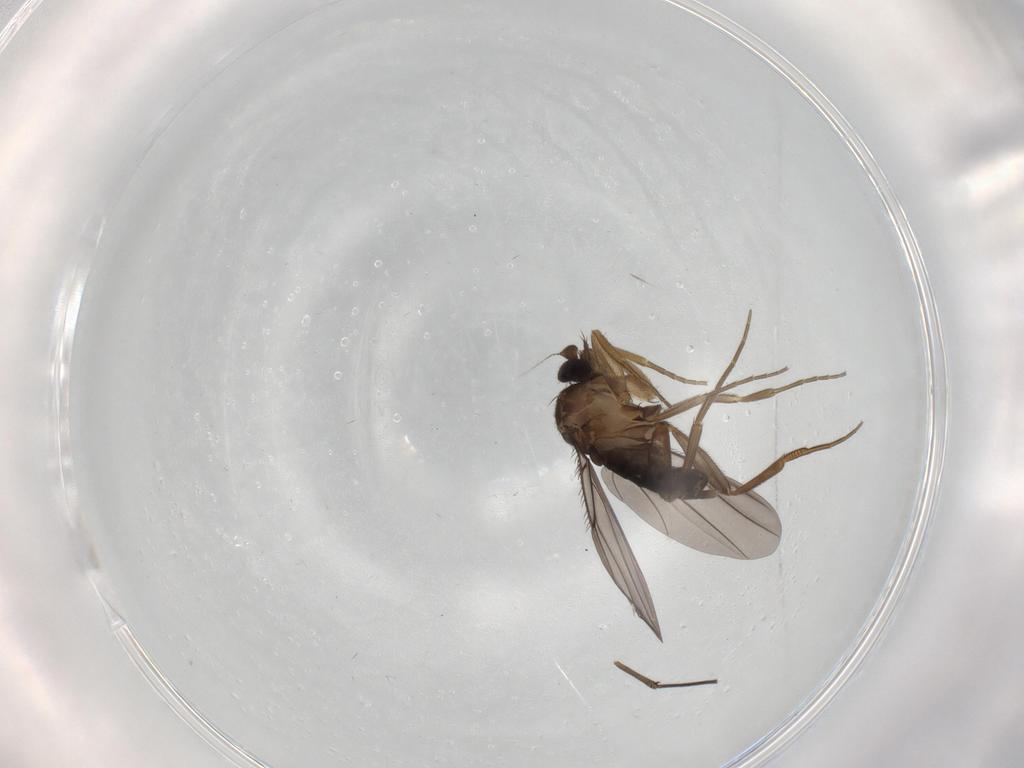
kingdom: Animalia
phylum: Arthropoda
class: Insecta
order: Diptera
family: Phoridae
